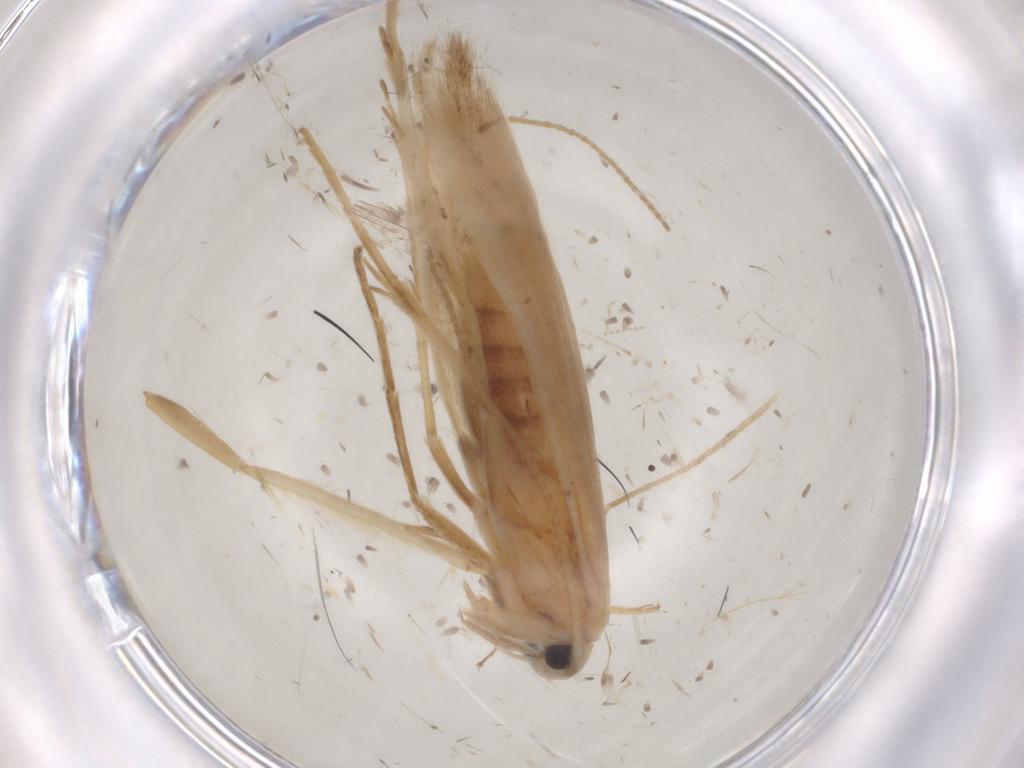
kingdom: Animalia
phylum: Arthropoda
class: Insecta
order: Lepidoptera
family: Xyloryctidae
